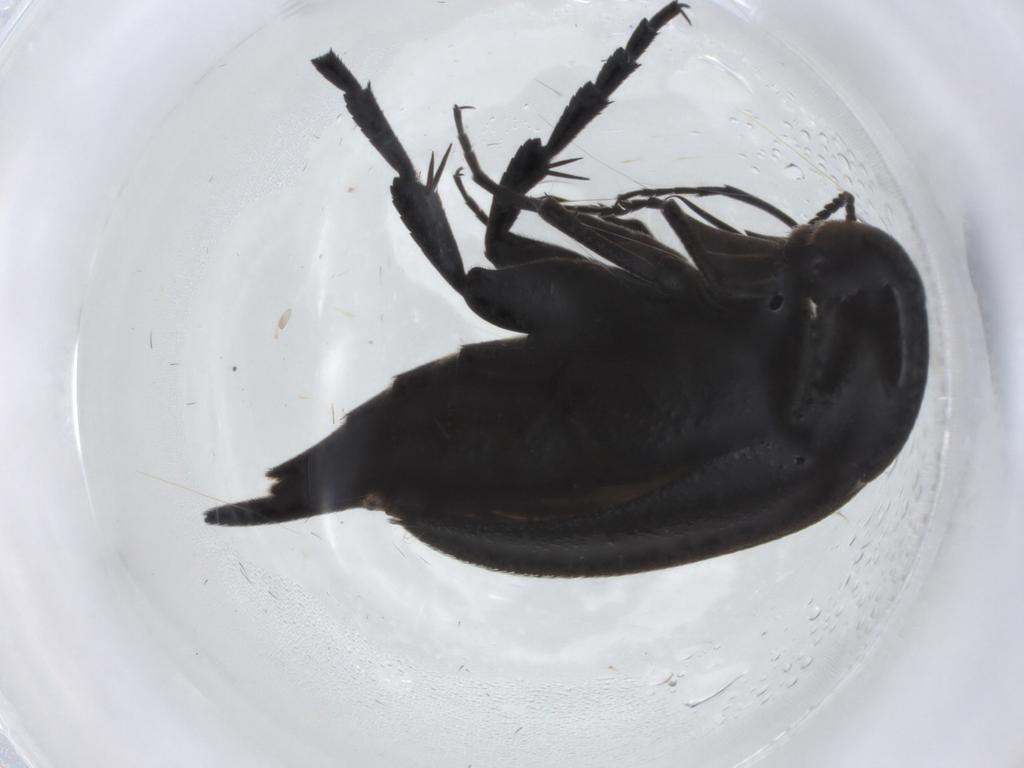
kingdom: Animalia
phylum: Arthropoda
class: Insecta
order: Coleoptera
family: Mordellidae
